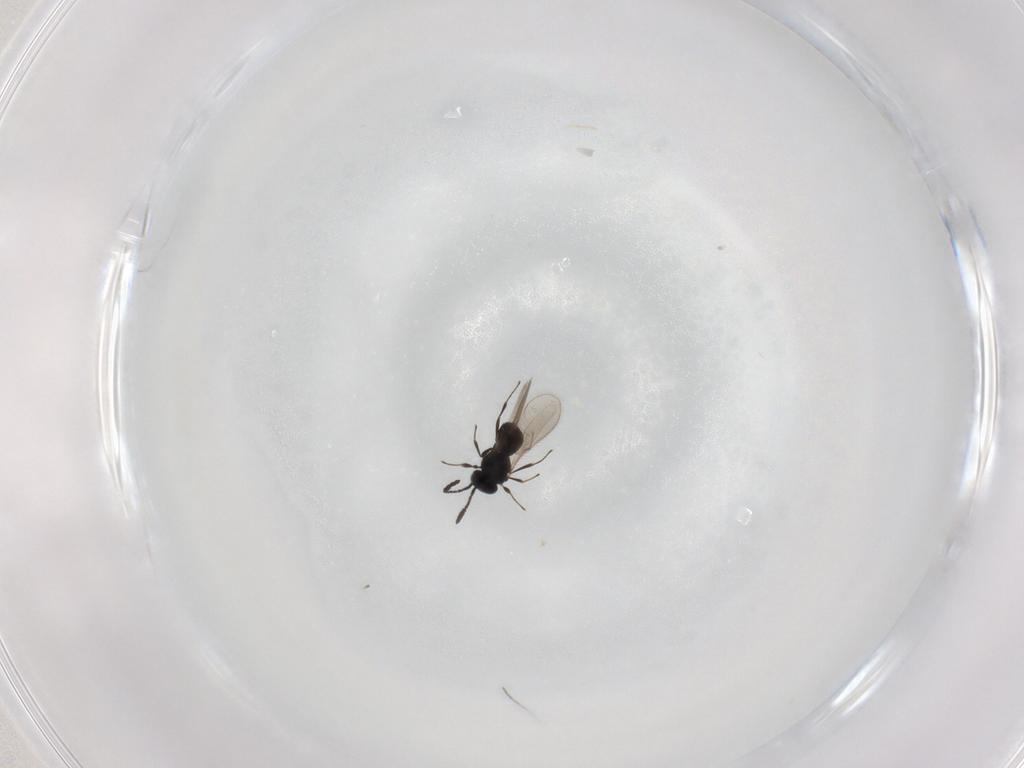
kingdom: Animalia
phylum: Arthropoda
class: Insecta
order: Hymenoptera
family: Scelionidae
